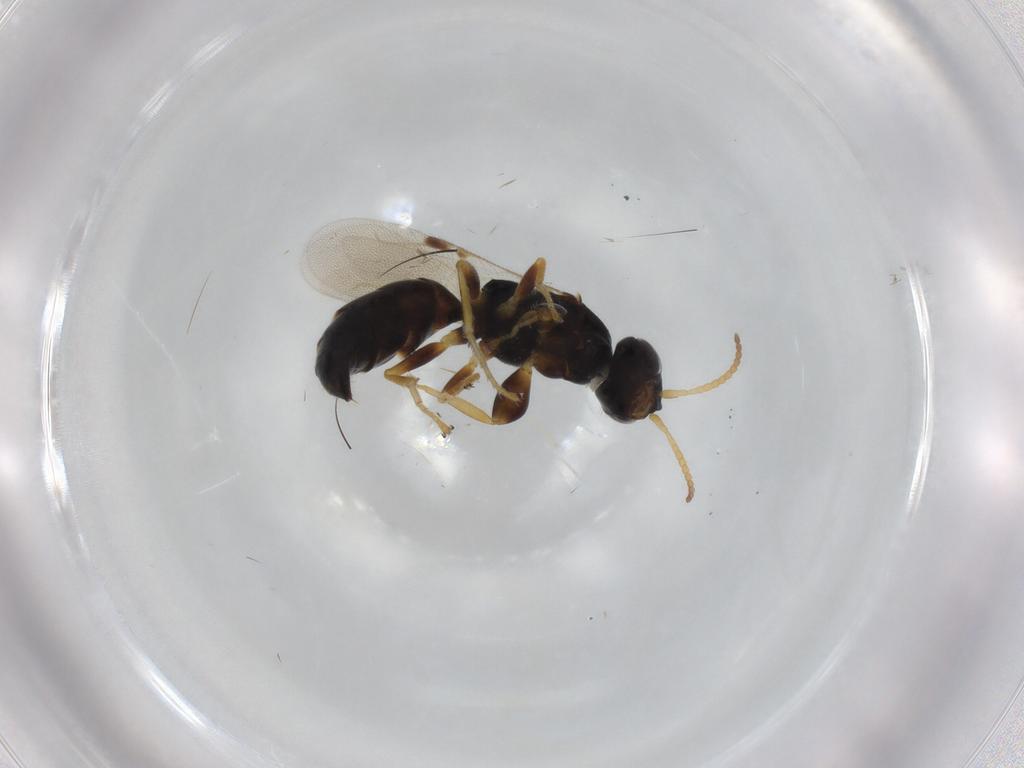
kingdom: Animalia
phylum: Arthropoda
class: Insecta
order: Hymenoptera
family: Bethylidae
